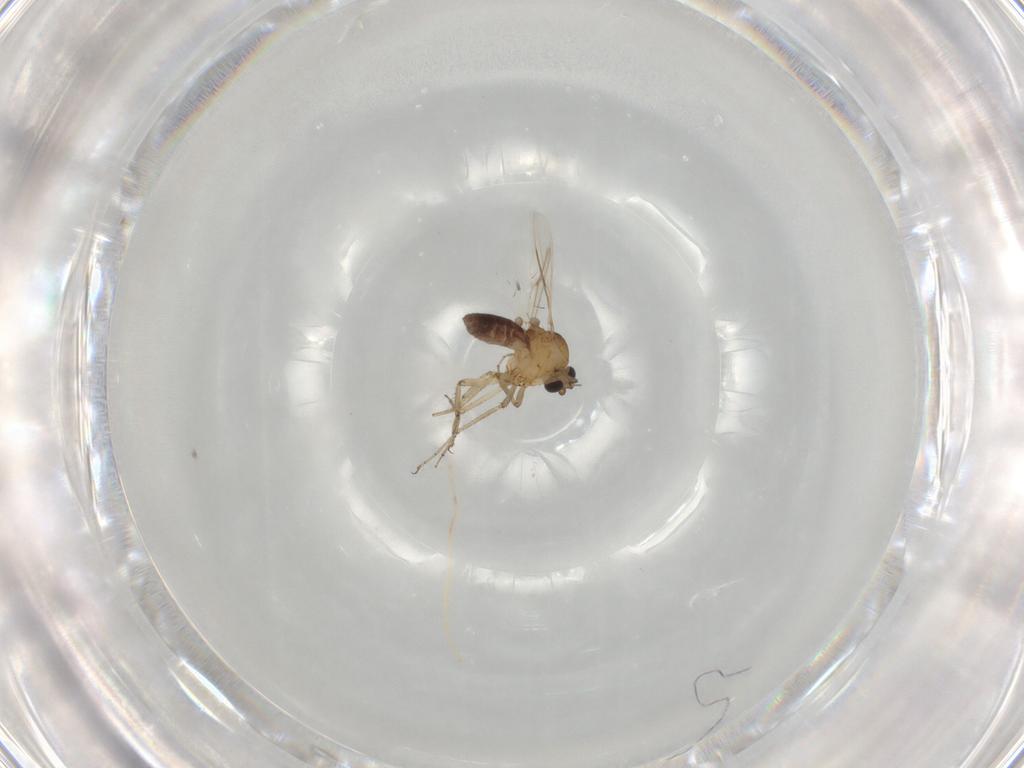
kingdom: Animalia
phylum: Arthropoda
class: Insecta
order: Diptera
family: Ceratopogonidae
